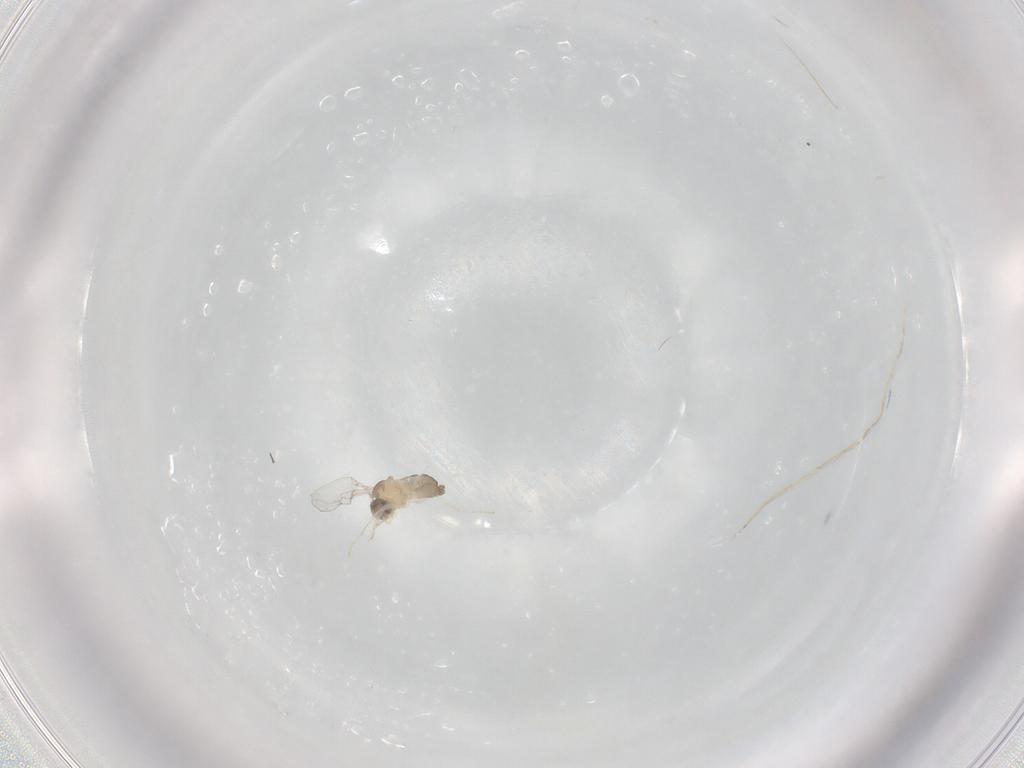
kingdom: Animalia
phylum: Arthropoda
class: Insecta
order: Diptera
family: Cecidomyiidae
